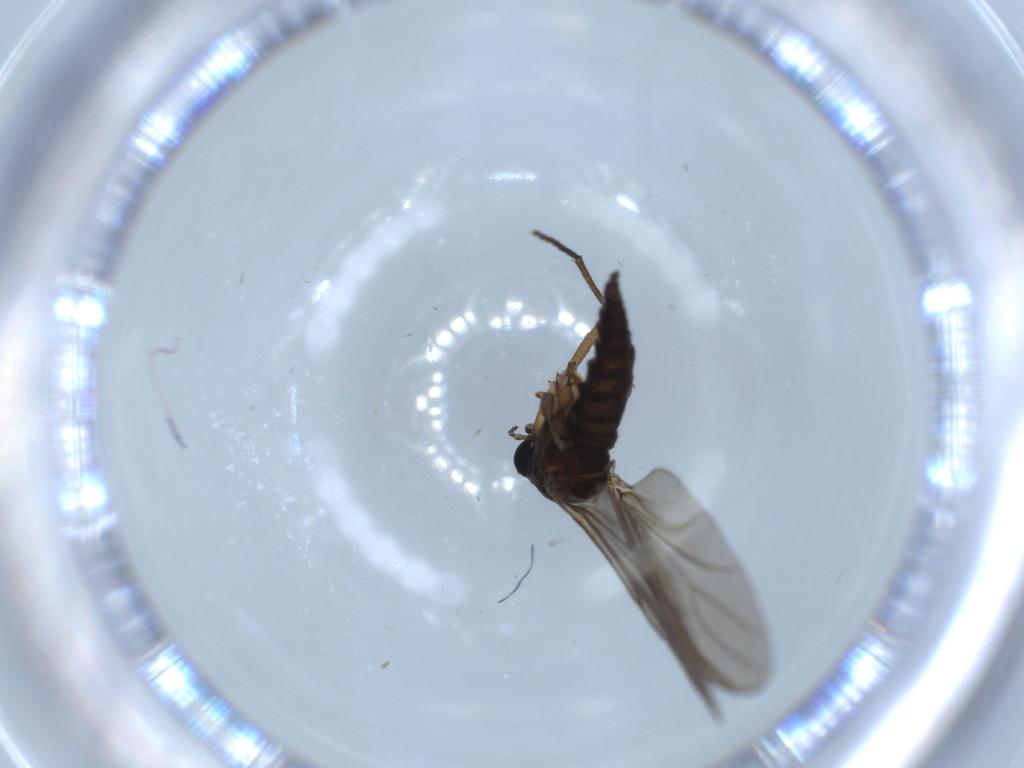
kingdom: Animalia
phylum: Arthropoda
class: Insecta
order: Diptera
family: Sciaridae
